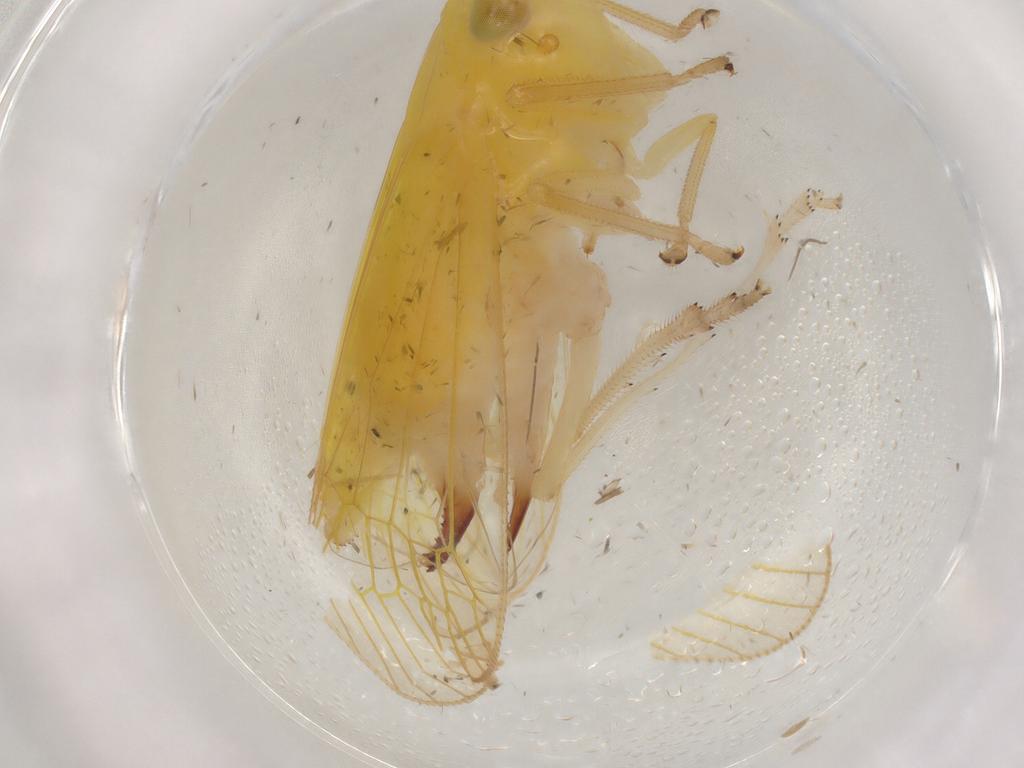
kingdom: Animalia
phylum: Arthropoda
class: Insecta
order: Hemiptera
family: Tropiduchidae
